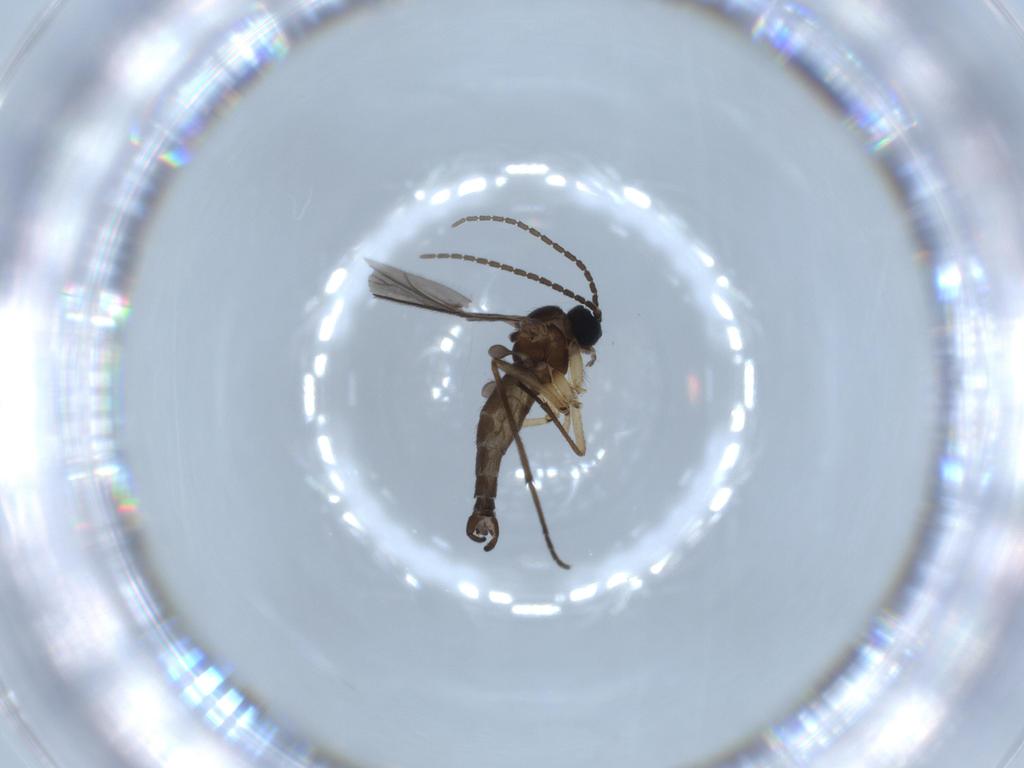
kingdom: Animalia
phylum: Arthropoda
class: Insecta
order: Diptera
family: Sciaridae
